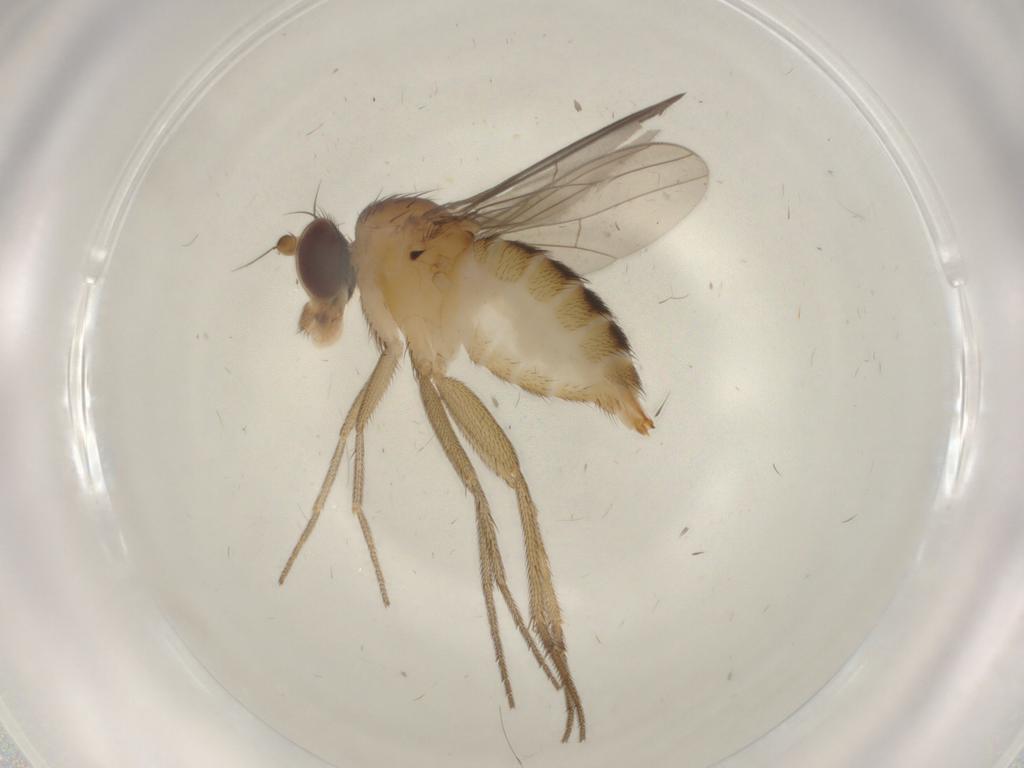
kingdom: Animalia
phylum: Arthropoda
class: Insecta
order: Diptera
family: Dolichopodidae
